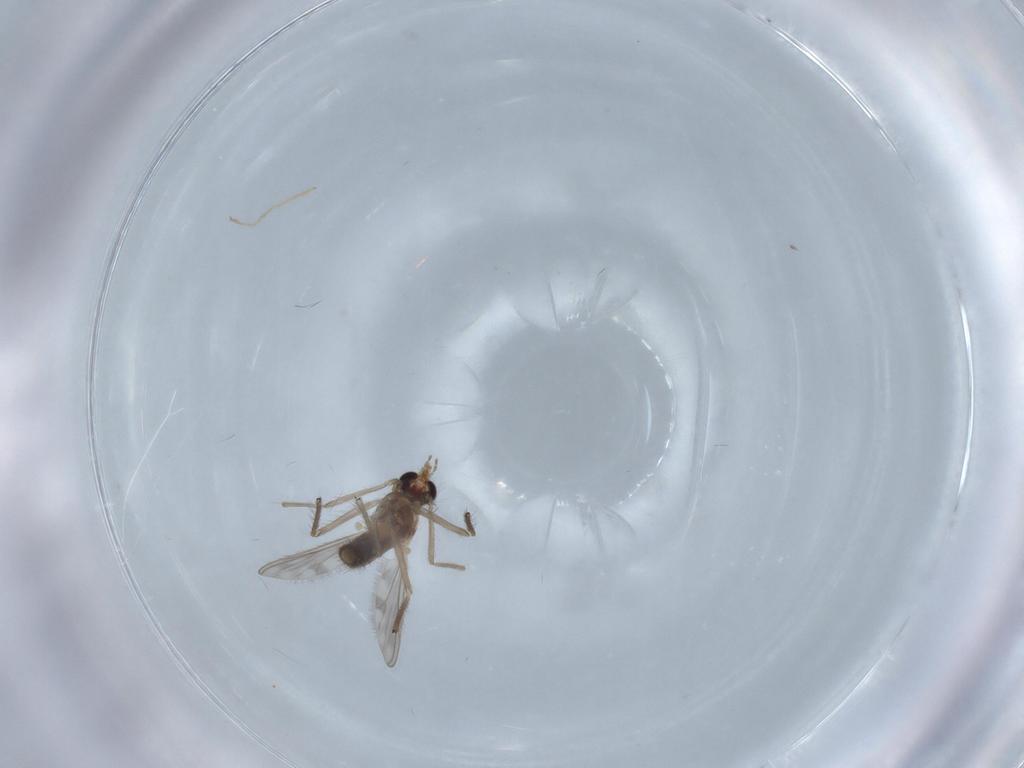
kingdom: Animalia
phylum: Arthropoda
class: Insecta
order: Diptera
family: Chironomidae
